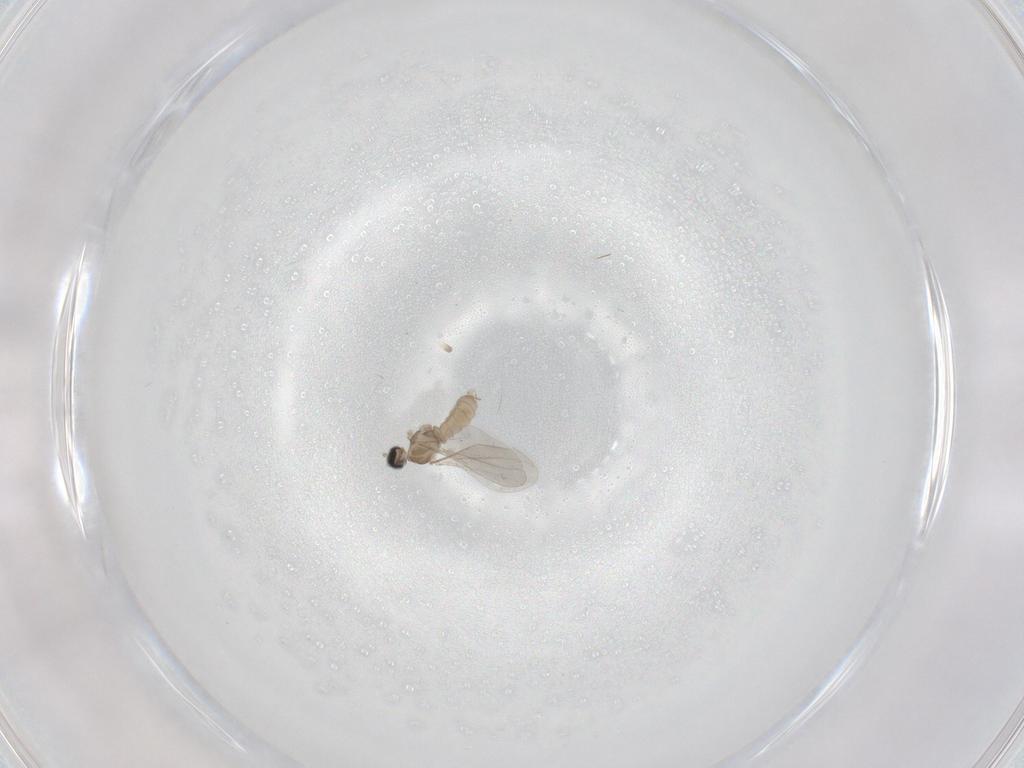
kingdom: Animalia
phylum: Arthropoda
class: Insecta
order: Diptera
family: Cecidomyiidae
